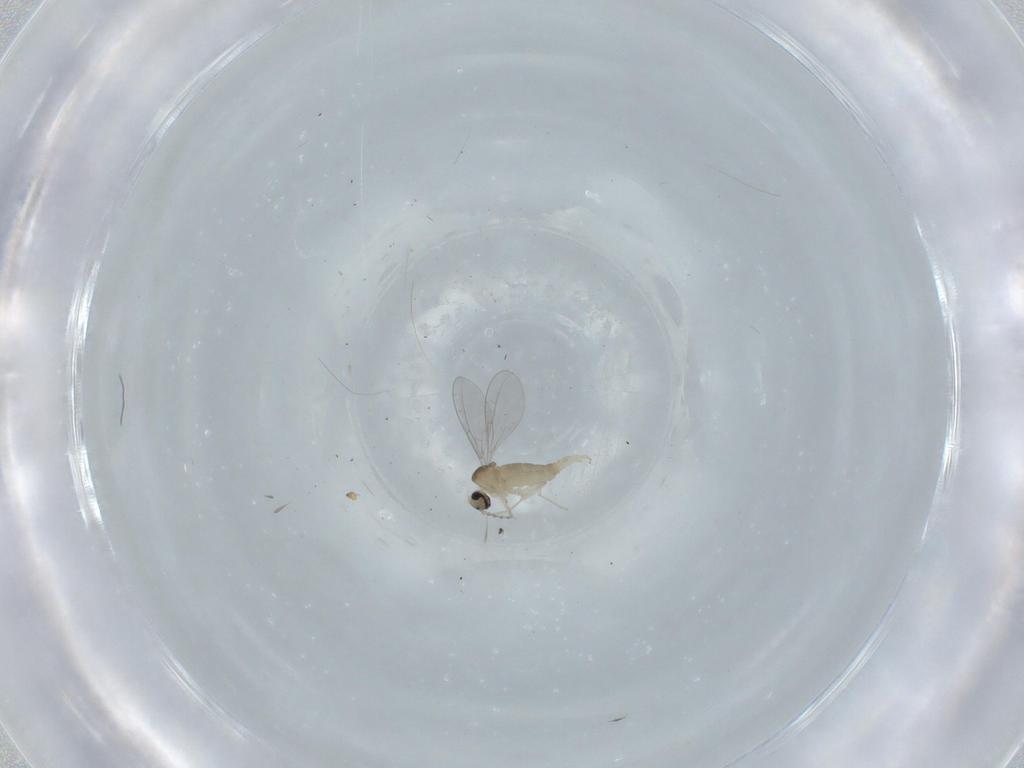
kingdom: Animalia
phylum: Arthropoda
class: Insecta
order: Diptera
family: Cecidomyiidae
